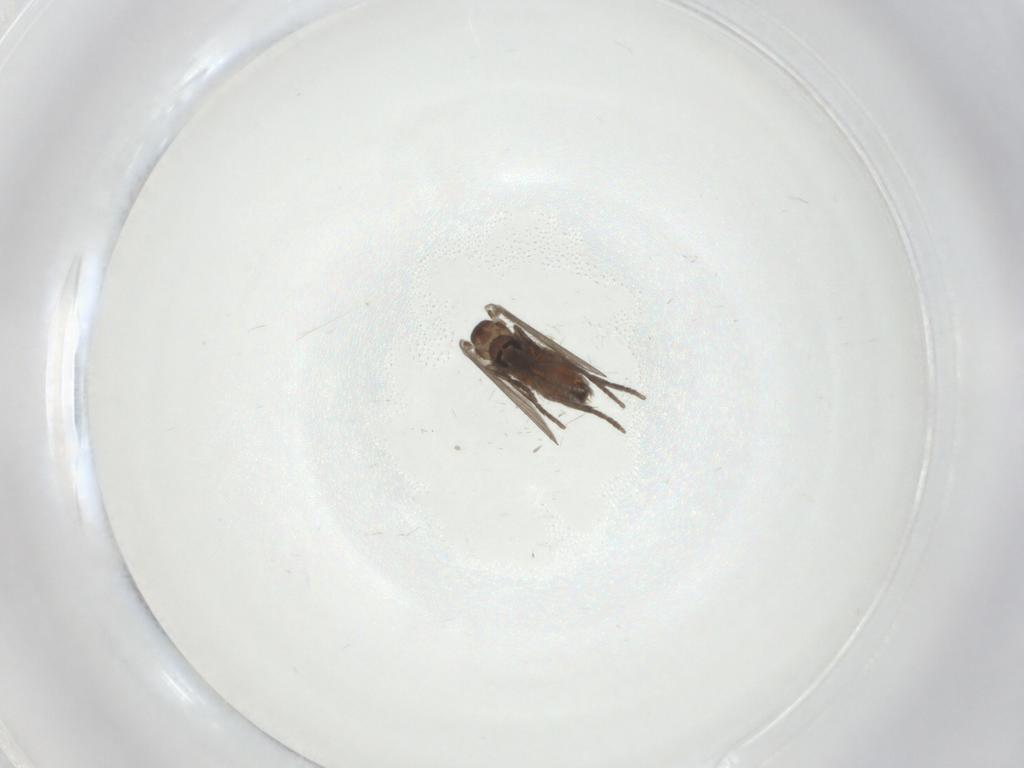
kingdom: Animalia
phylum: Arthropoda
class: Insecta
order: Diptera
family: Psychodidae
